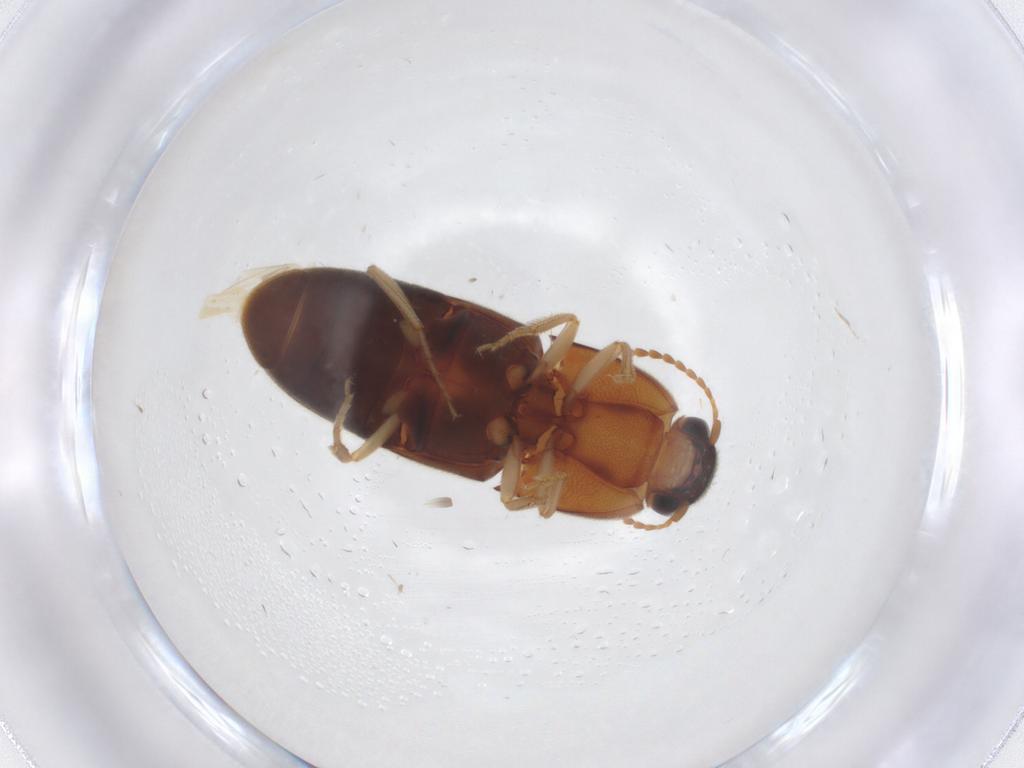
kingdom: Animalia
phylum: Arthropoda
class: Insecta
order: Coleoptera
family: Elateridae
